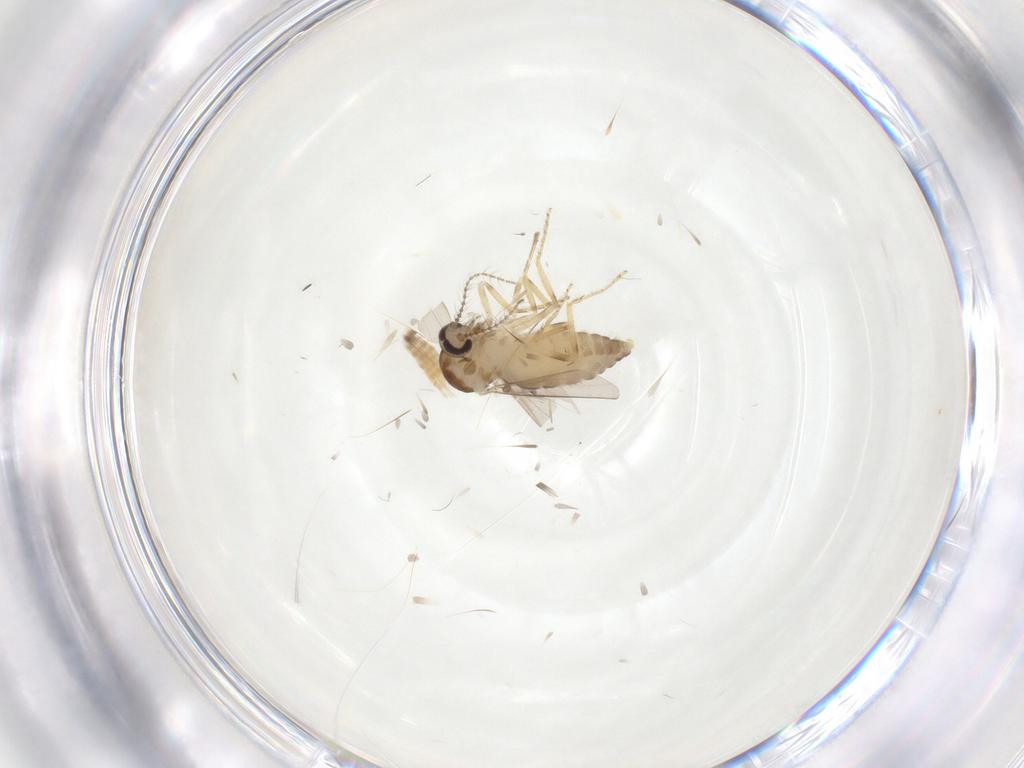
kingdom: Animalia
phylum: Arthropoda
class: Insecta
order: Diptera
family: Ceratopogonidae
